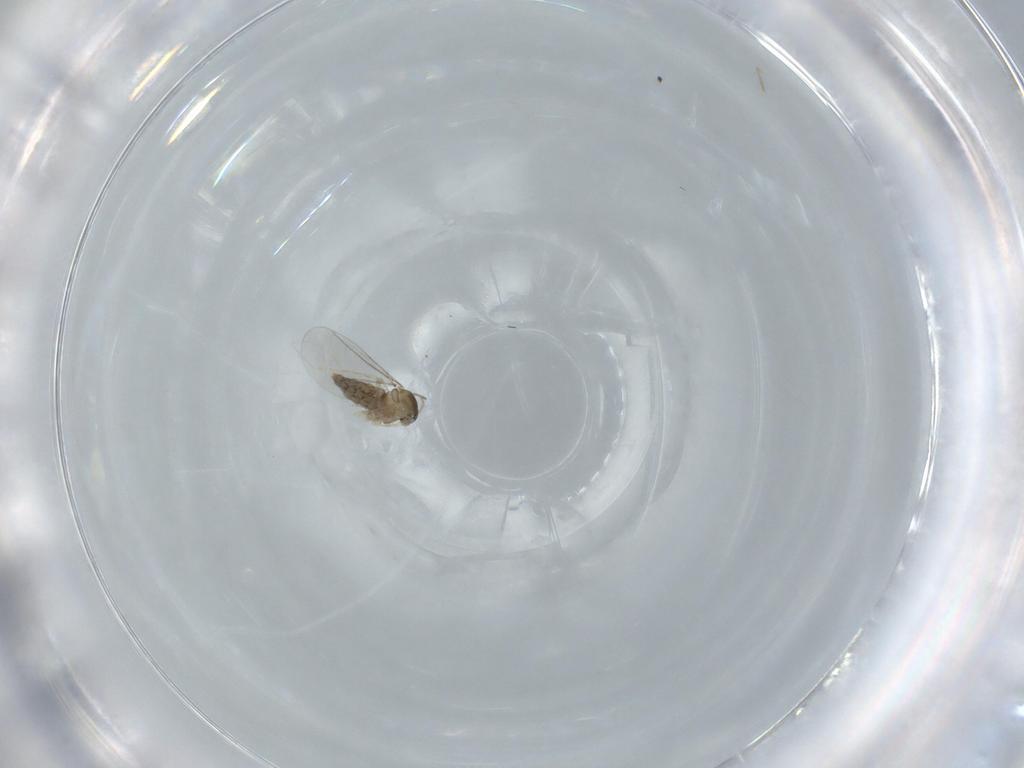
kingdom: Animalia
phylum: Arthropoda
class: Insecta
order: Diptera
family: Cecidomyiidae
